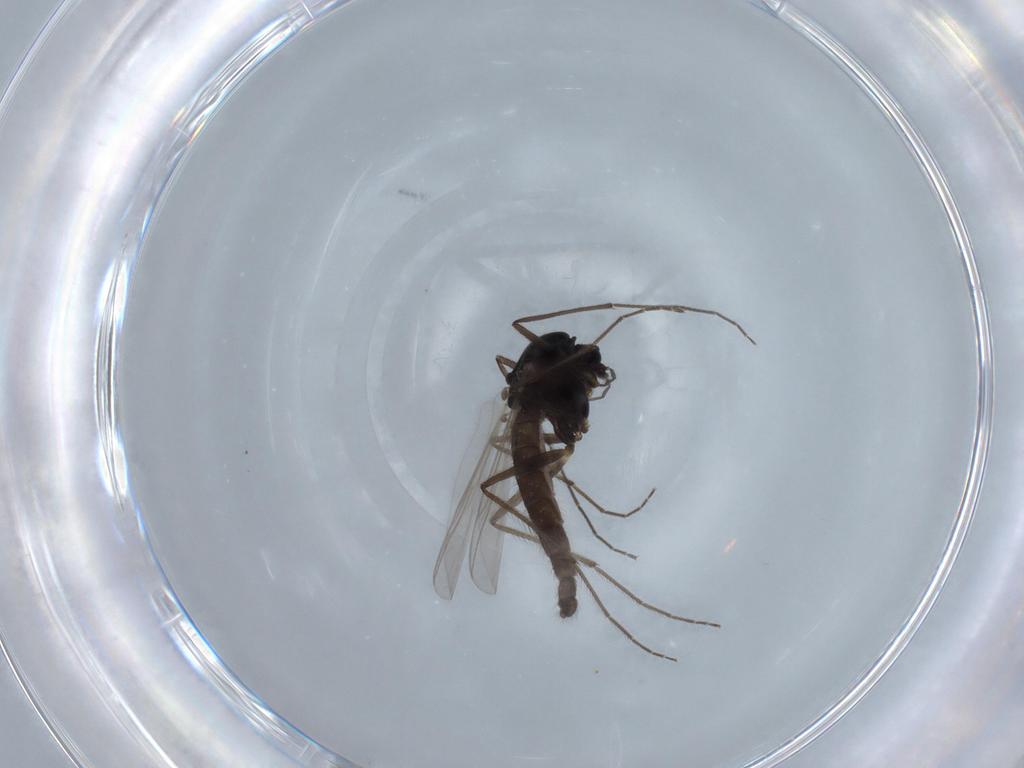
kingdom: Animalia
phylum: Arthropoda
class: Insecta
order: Diptera
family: Chironomidae
